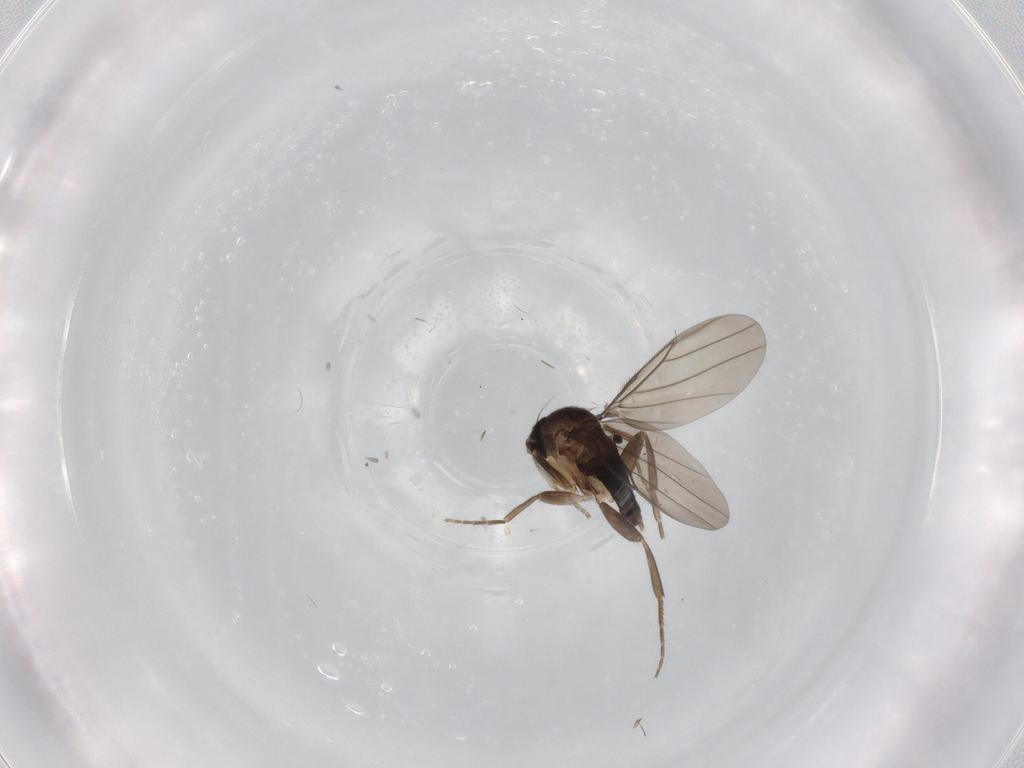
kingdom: Animalia
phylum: Arthropoda
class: Insecta
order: Diptera
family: Phoridae
